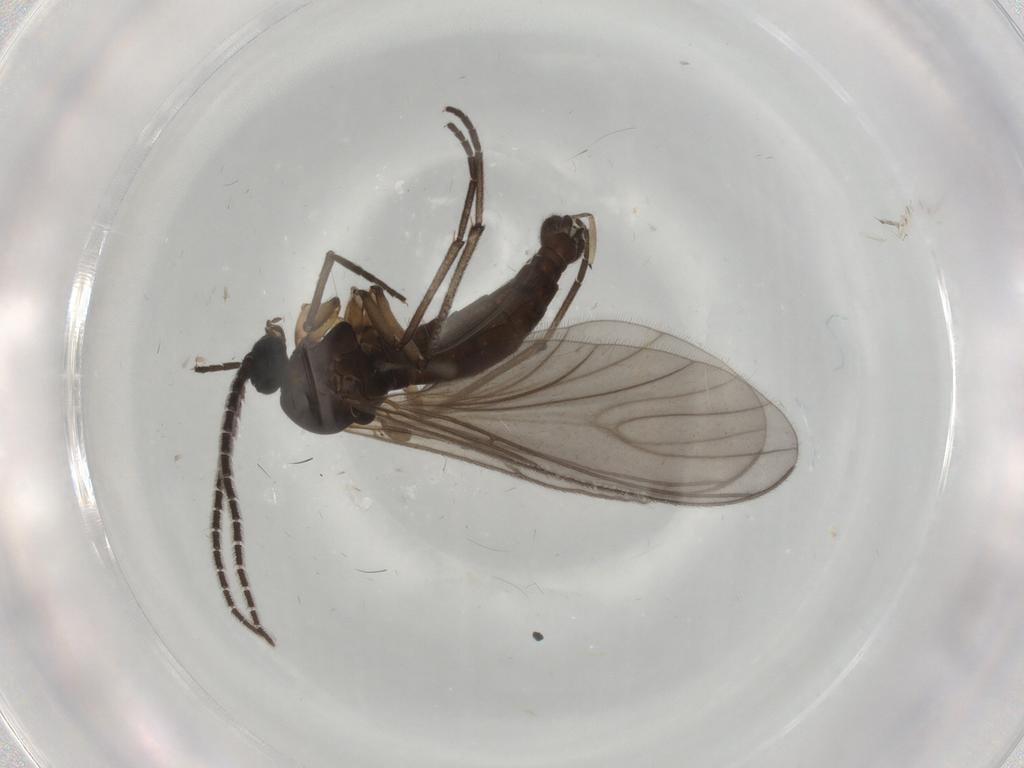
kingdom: Animalia
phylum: Arthropoda
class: Insecta
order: Diptera
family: Sciaridae
